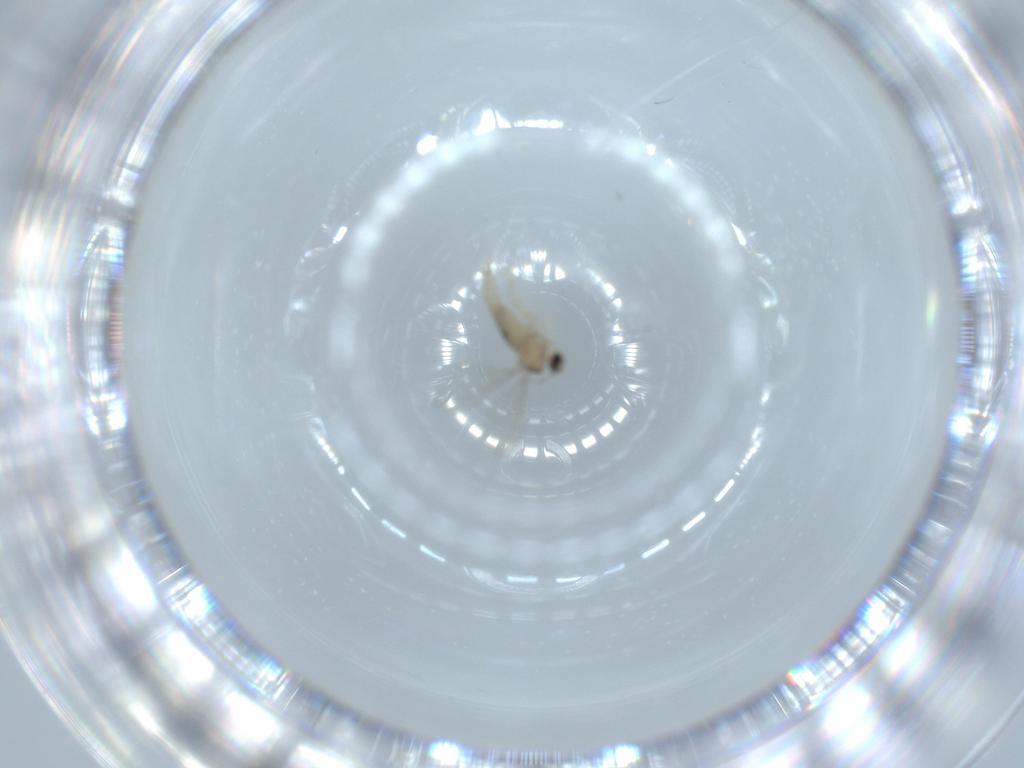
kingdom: Animalia
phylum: Arthropoda
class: Insecta
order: Diptera
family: Cecidomyiidae
